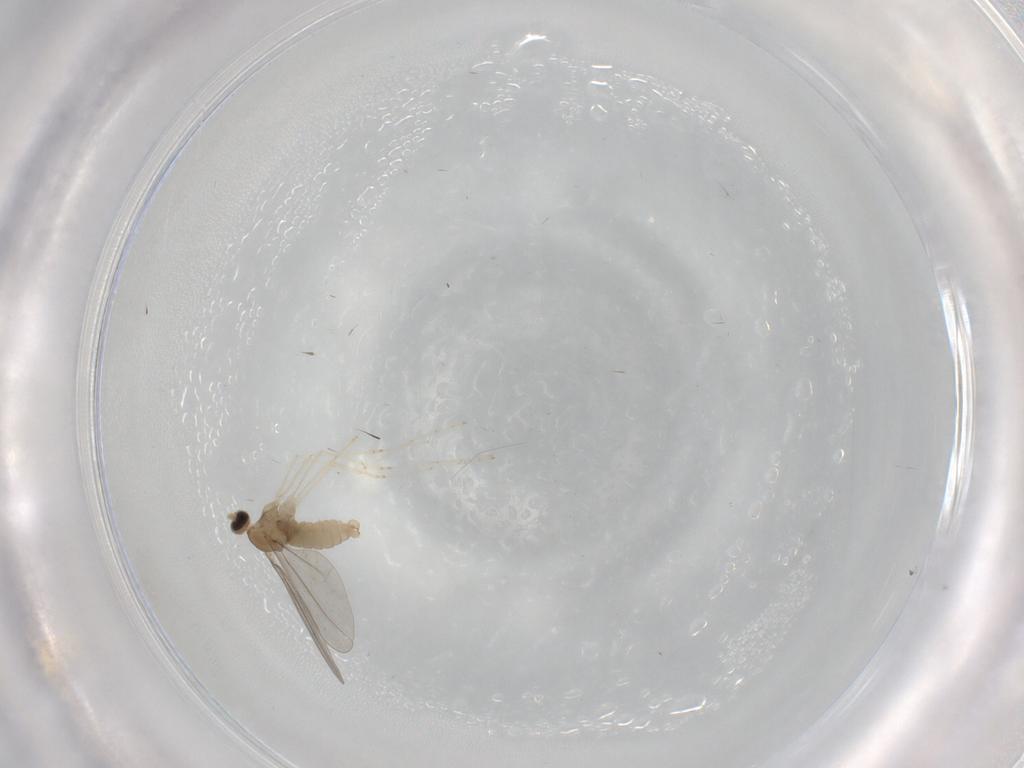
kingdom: Animalia
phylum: Arthropoda
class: Insecta
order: Diptera
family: Cecidomyiidae
